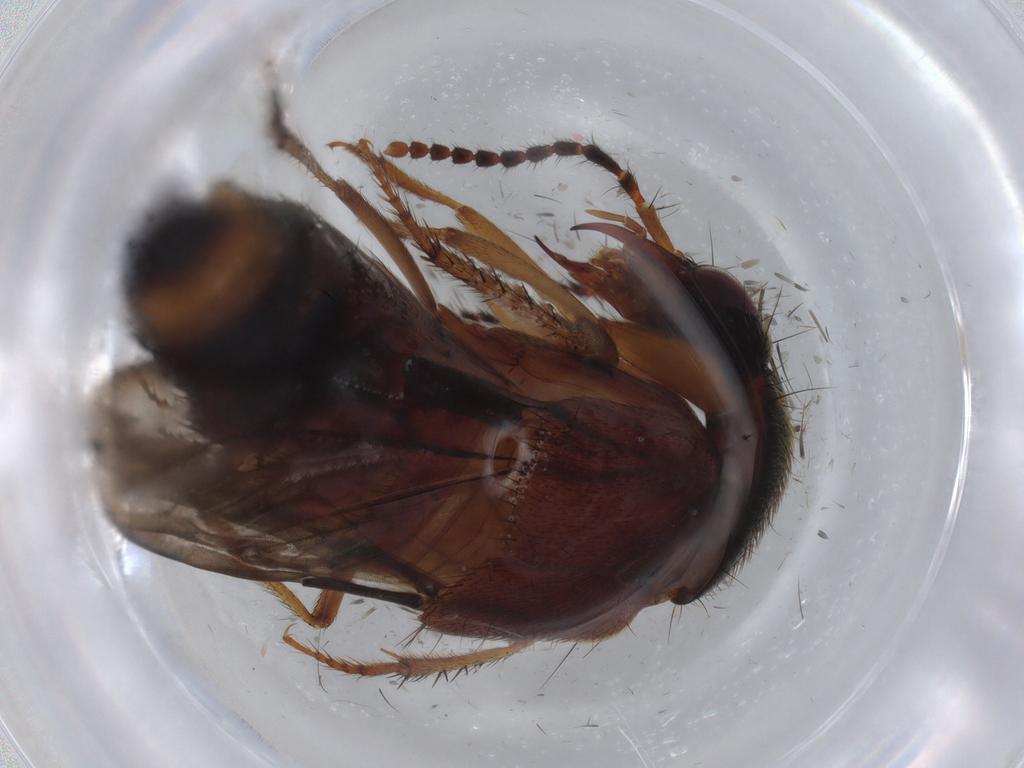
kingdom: Animalia
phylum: Arthropoda
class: Insecta
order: Coleoptera
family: Staphylinidae
